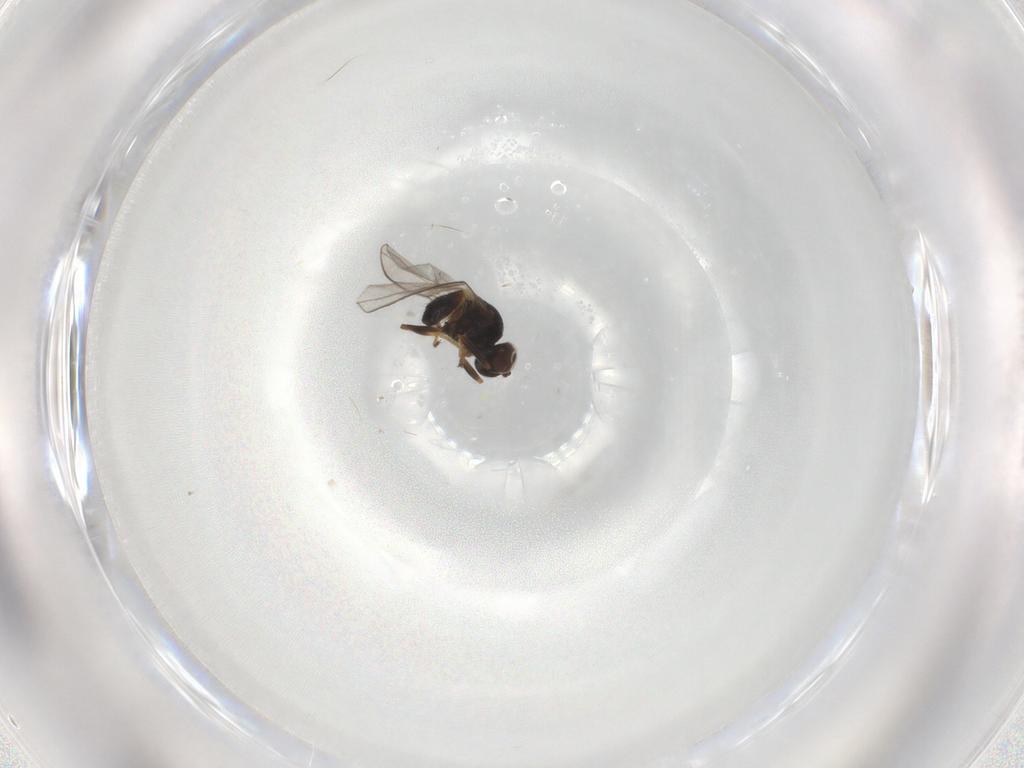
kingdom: Animalia
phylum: Arthropoda
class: Insecta
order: Diptera
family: Chloropidae
